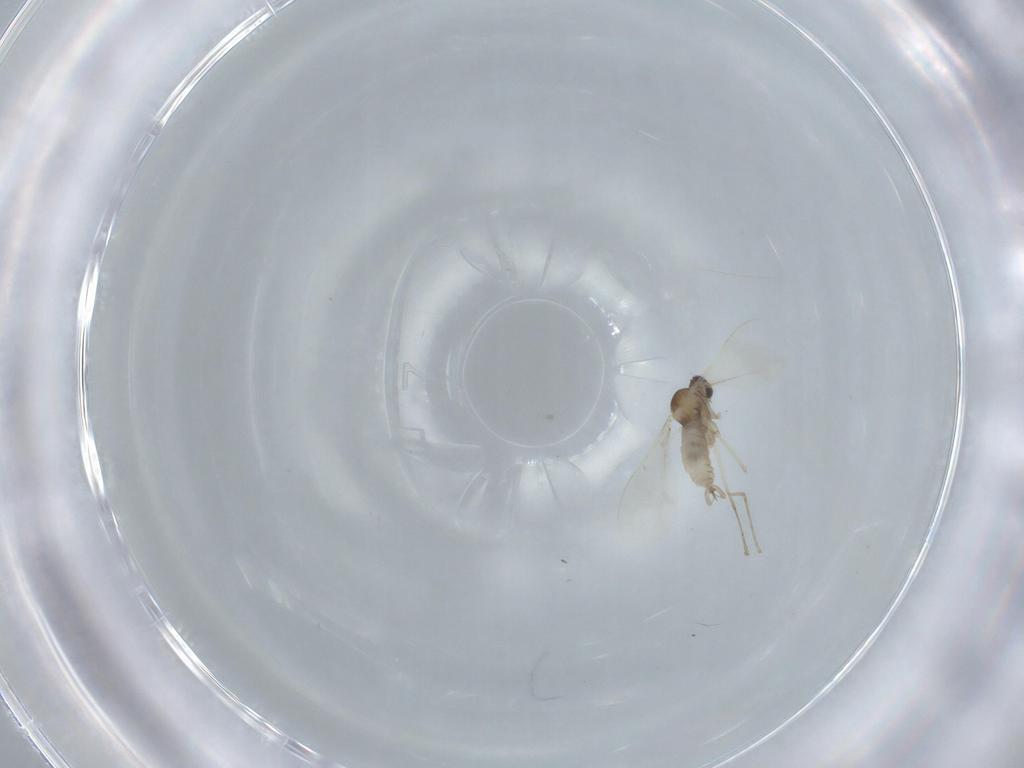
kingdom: Animalia
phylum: Arthropoda
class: Insecta
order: Diptera
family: Cecidomyiidae
